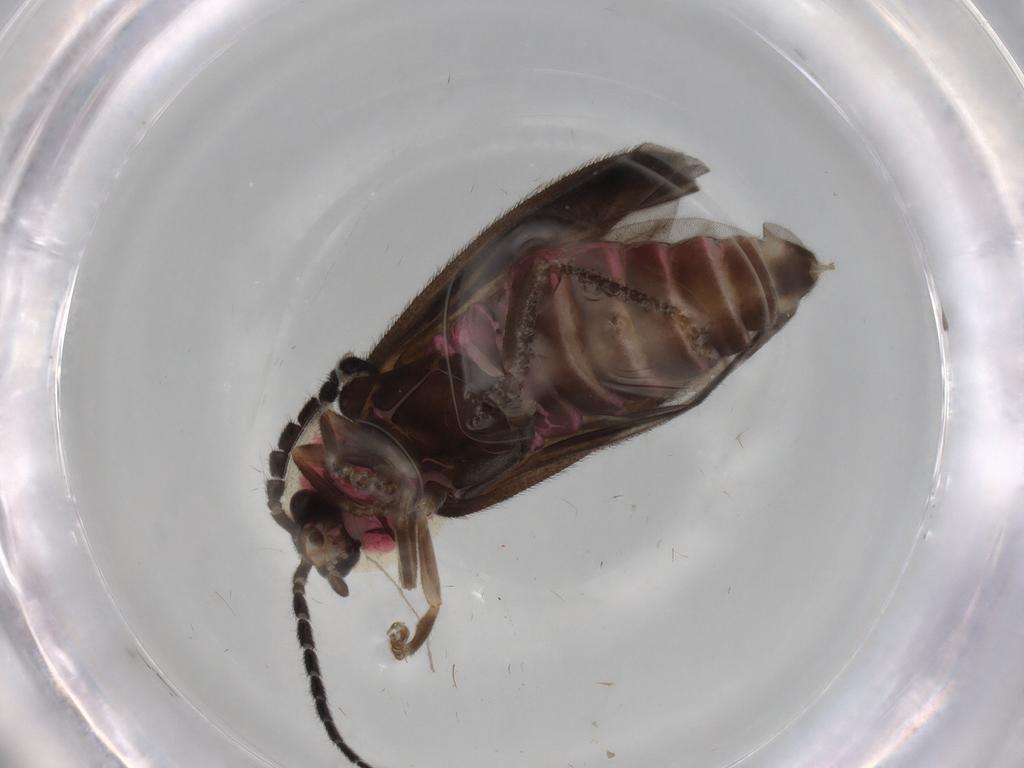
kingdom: Animalia
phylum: Arthropoda
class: Insecta
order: Coleoptera
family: Lampyridae
